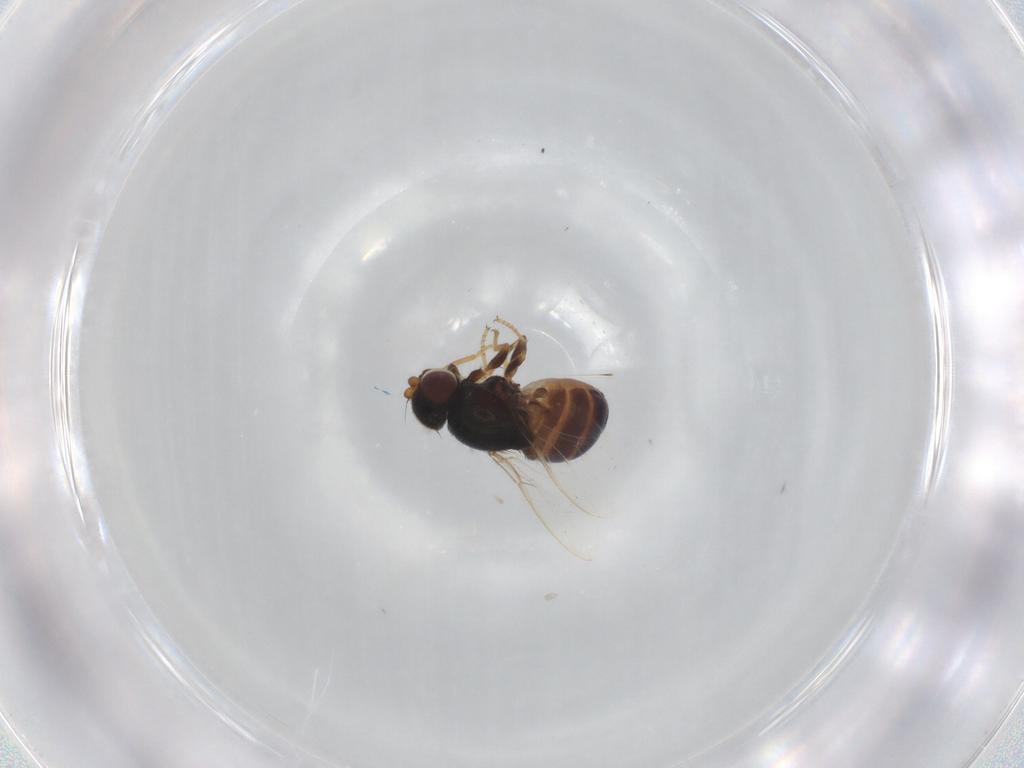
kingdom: Animalia
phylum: Arthropoda
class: Insecta
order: Diptera
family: Chloropidae
